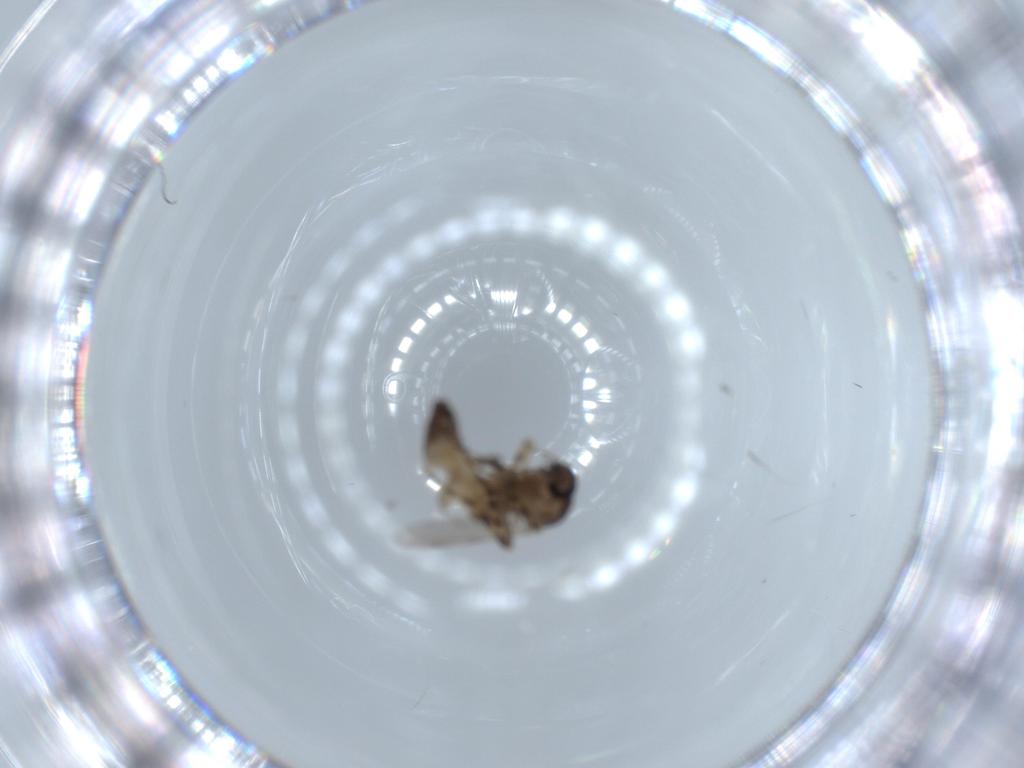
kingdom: Animalia
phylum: Arthropoda
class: Insecta
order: Diptera
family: Ceratopogonidae
